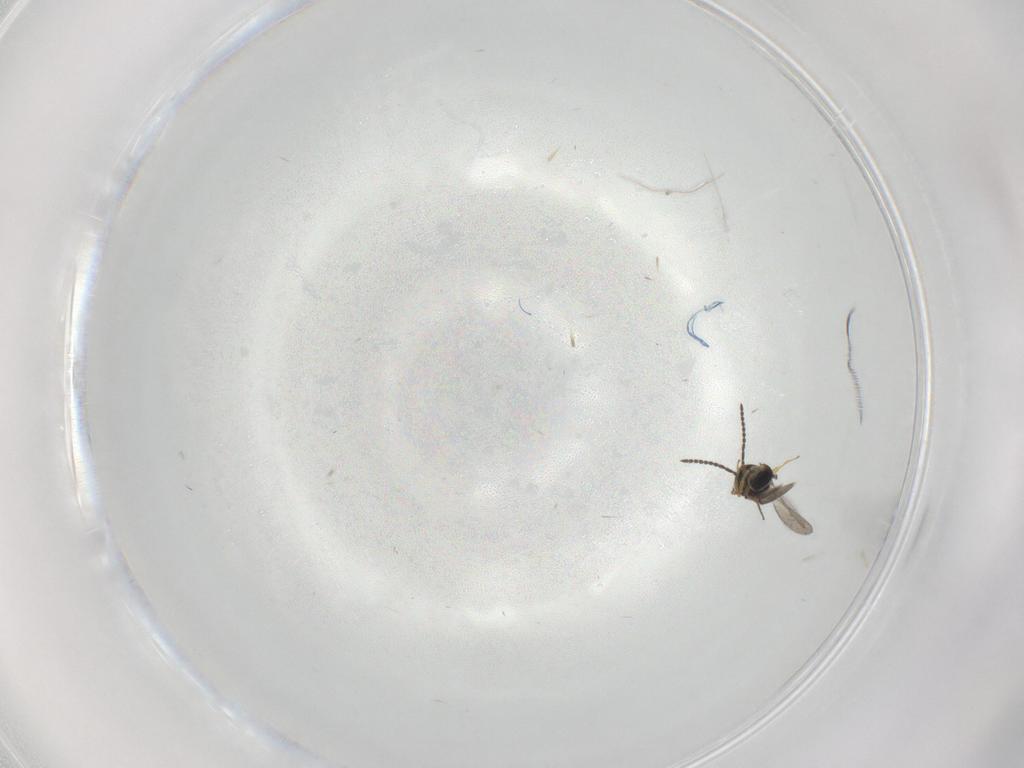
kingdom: Animalia
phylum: Arthropoda
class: Insecta
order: Hymenoptera
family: Scelionidae
